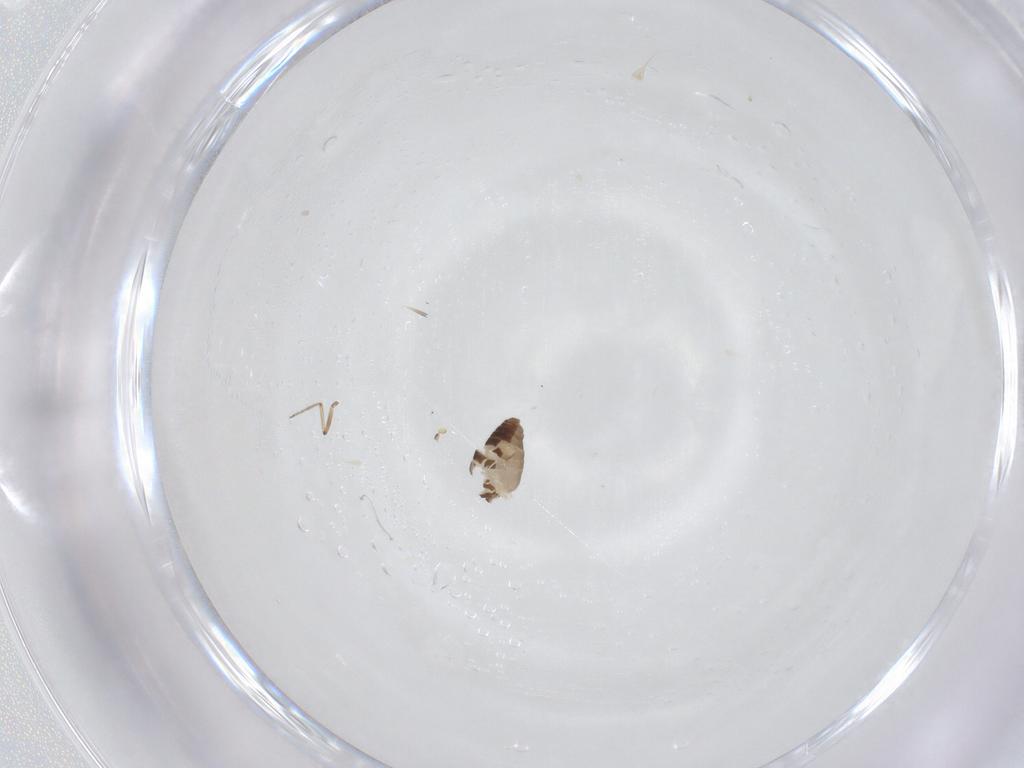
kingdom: Animalia
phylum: Arthropoda
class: Insecta
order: Diptera
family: Ceratopogonidae
